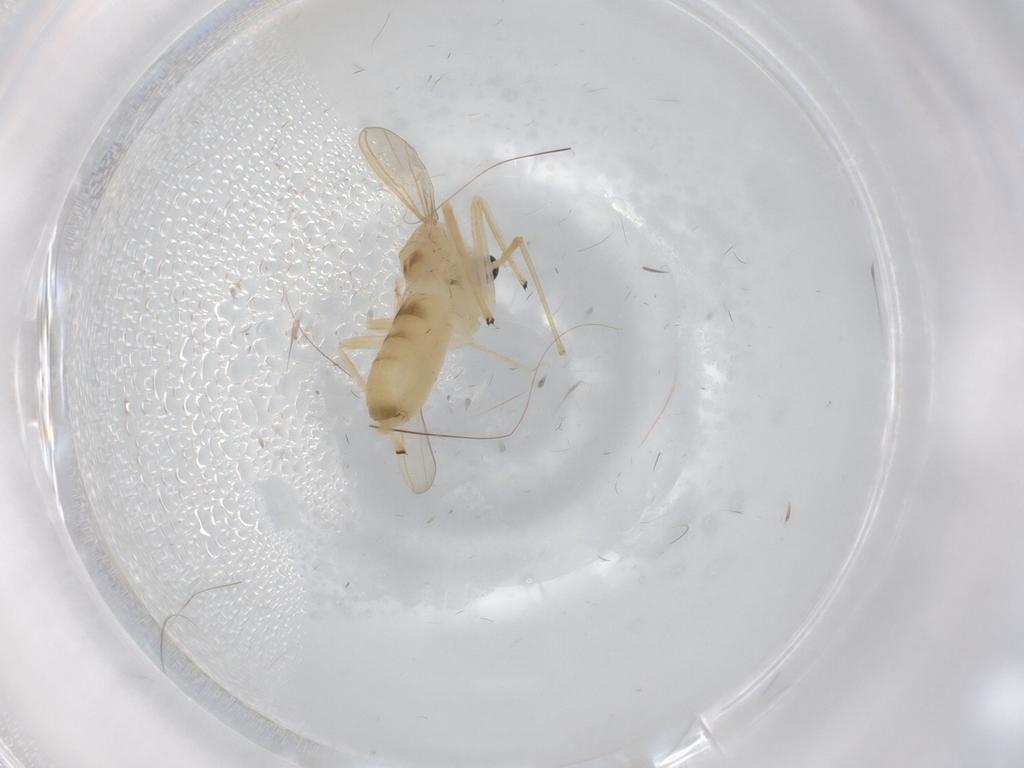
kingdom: Animalia
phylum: Arthropoda
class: Insecta
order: Diptera
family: Chironomidae
